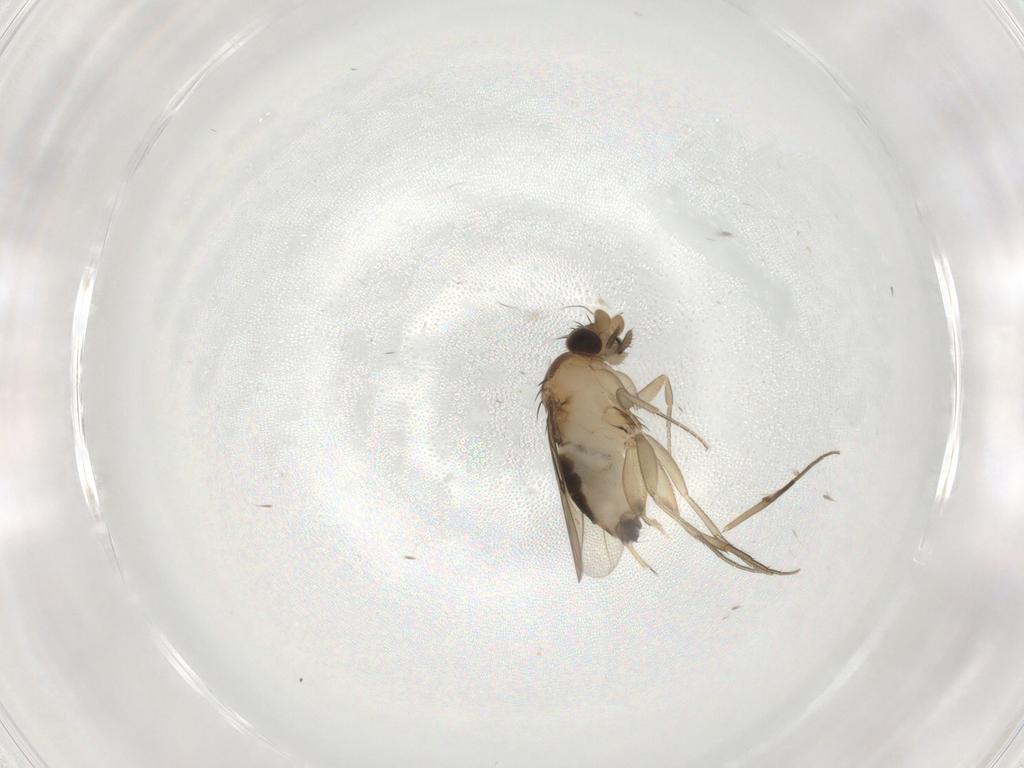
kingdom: Animalia
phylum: Arthropoda
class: Insecta
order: Diptera
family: Phoridae
